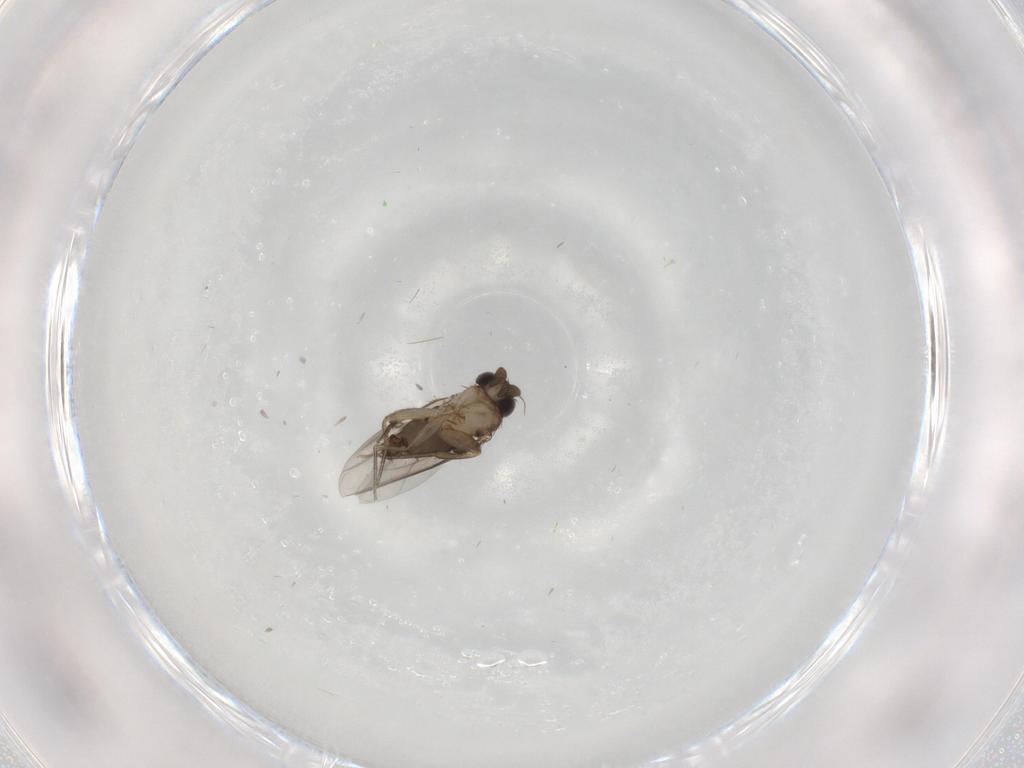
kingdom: Animalia
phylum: Arthropoda
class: Insecta
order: Diptera
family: Phoridae
